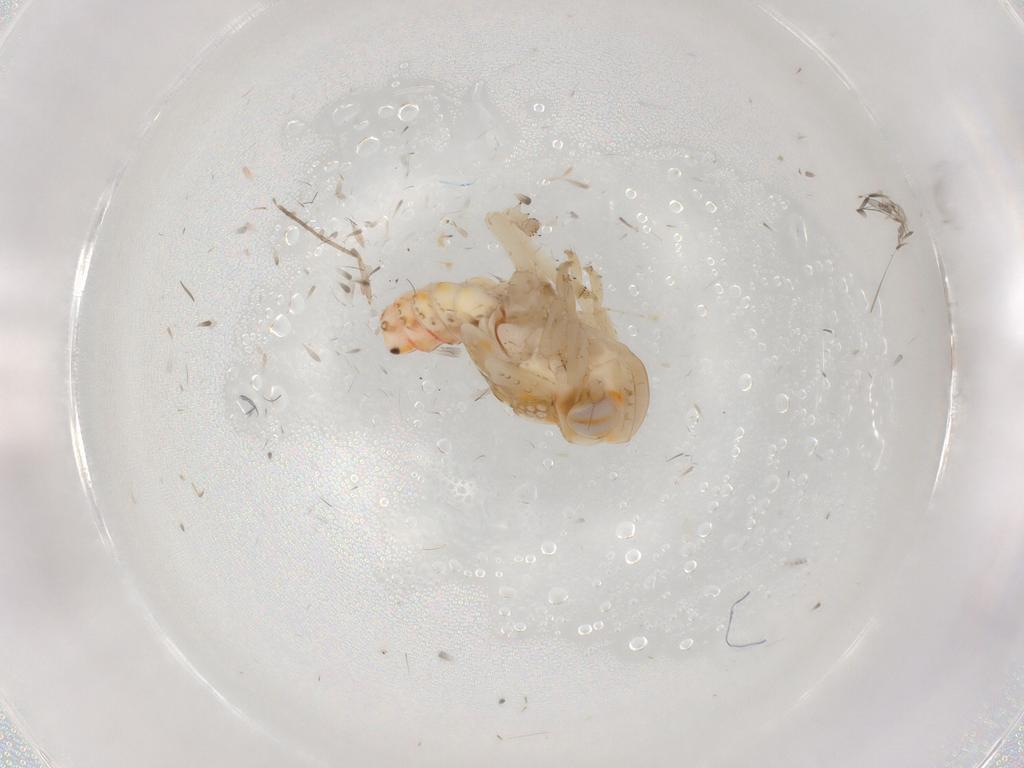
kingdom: Animalia
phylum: Arthropoda
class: Insecta
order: Hemiptera
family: Nogodinidae
